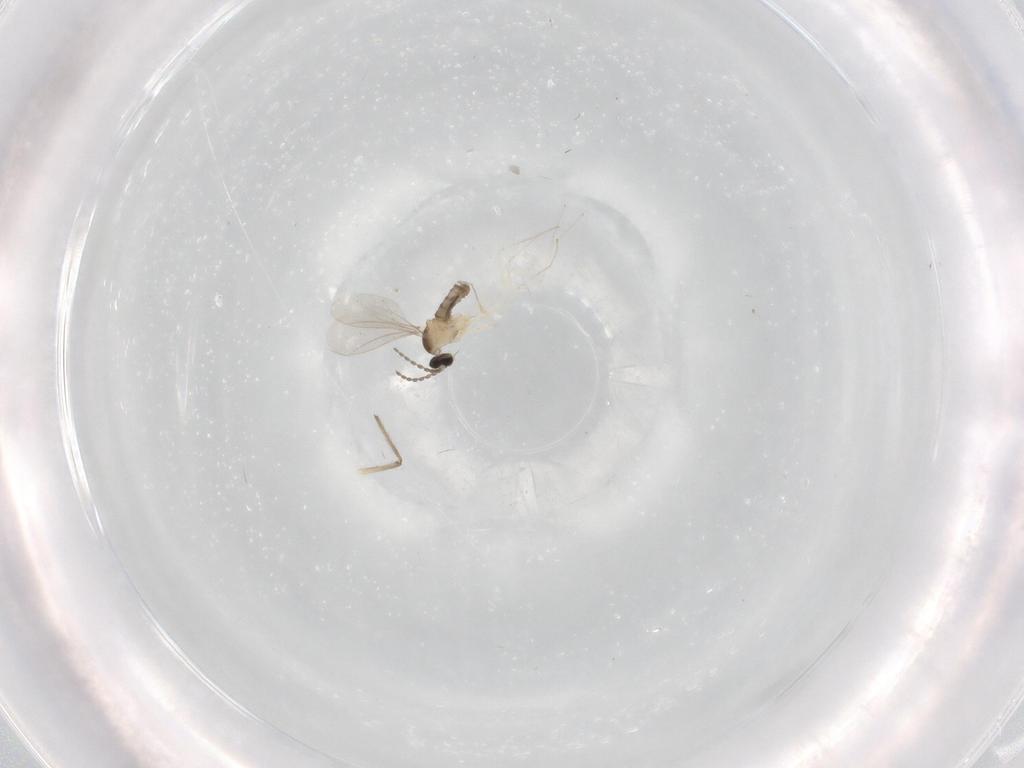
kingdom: Animalia
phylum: Arthropoda
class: Insecta
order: Diptera
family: Cecidomyiidae
